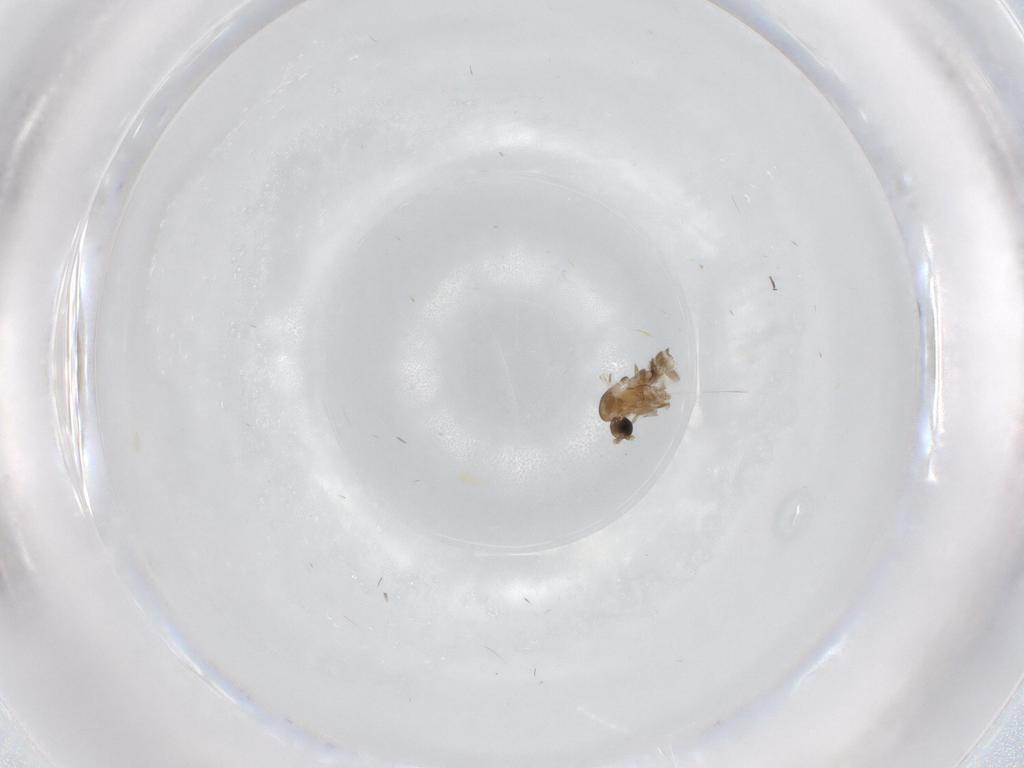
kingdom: Animalia
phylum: Arthropoda
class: Insecta
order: Diptera
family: Psychodidae
